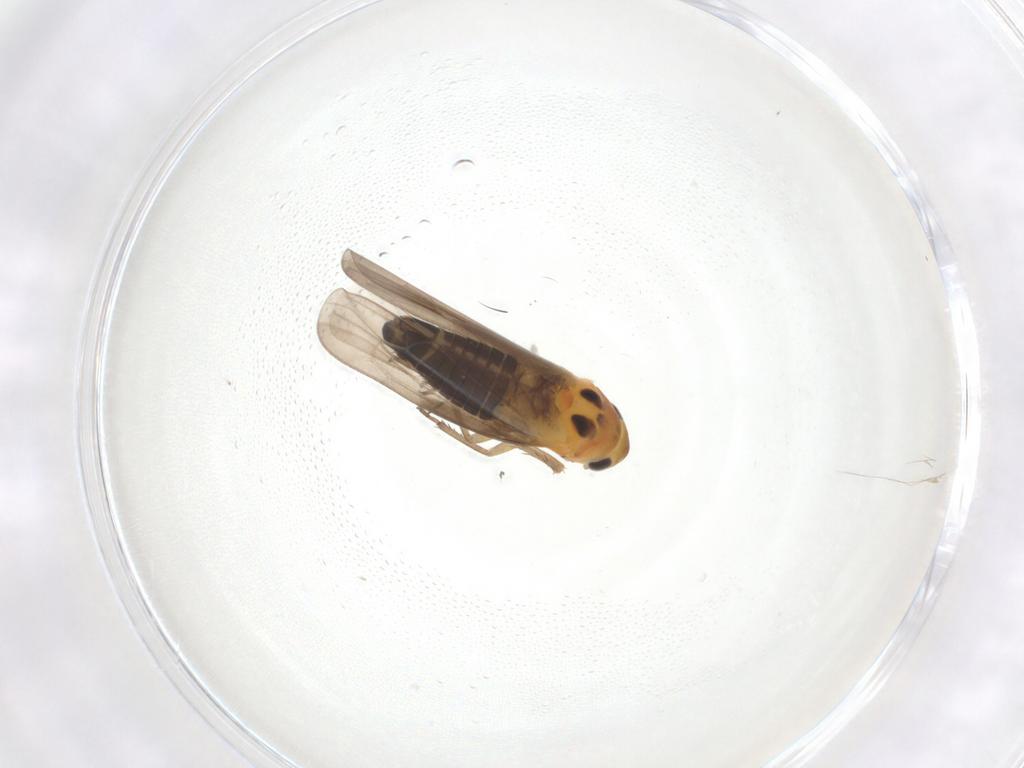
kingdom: Animalia
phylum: Arthropoda
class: Insecta
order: Hemiptera
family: Cicadellidae
